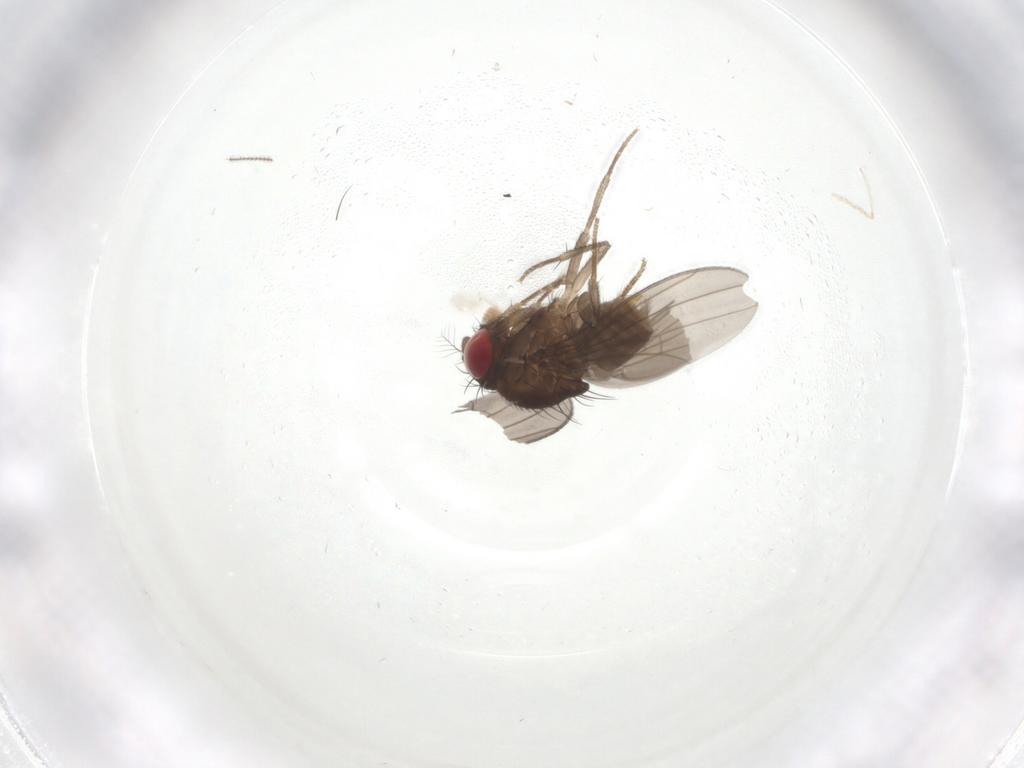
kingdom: Animalia
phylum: Arthropoda
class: Insecta
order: Diptera
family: Drosophilidae
